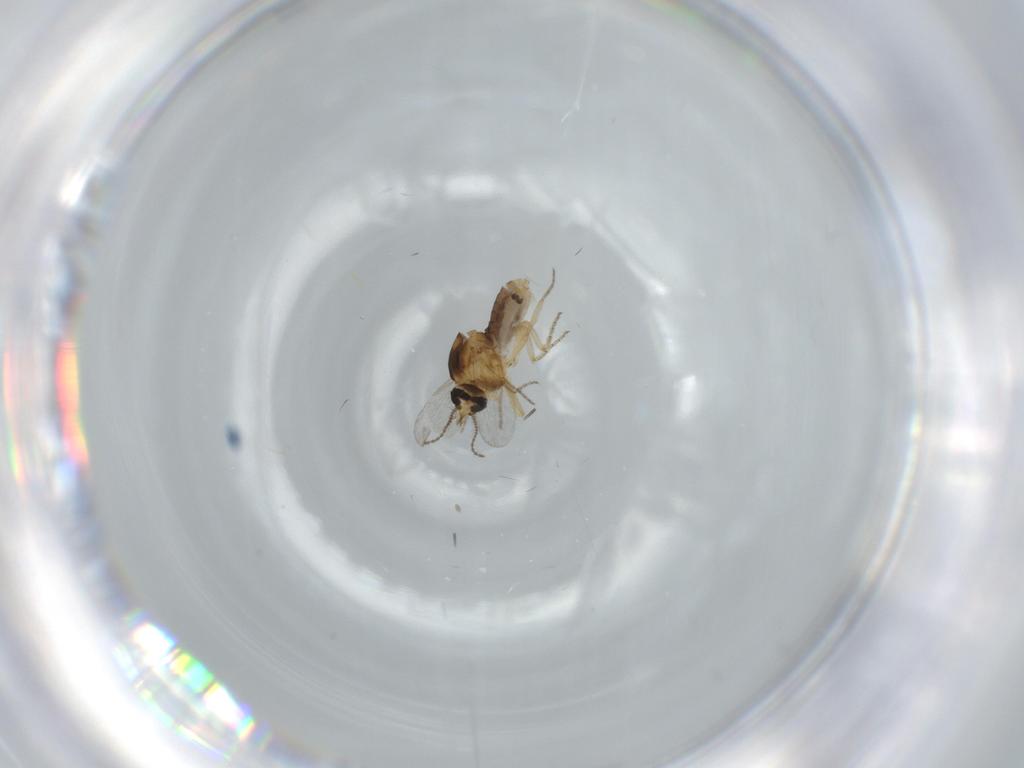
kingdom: Animalia
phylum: Arthropoda
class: Insecta
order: Diptera
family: Ceratopogonidae
